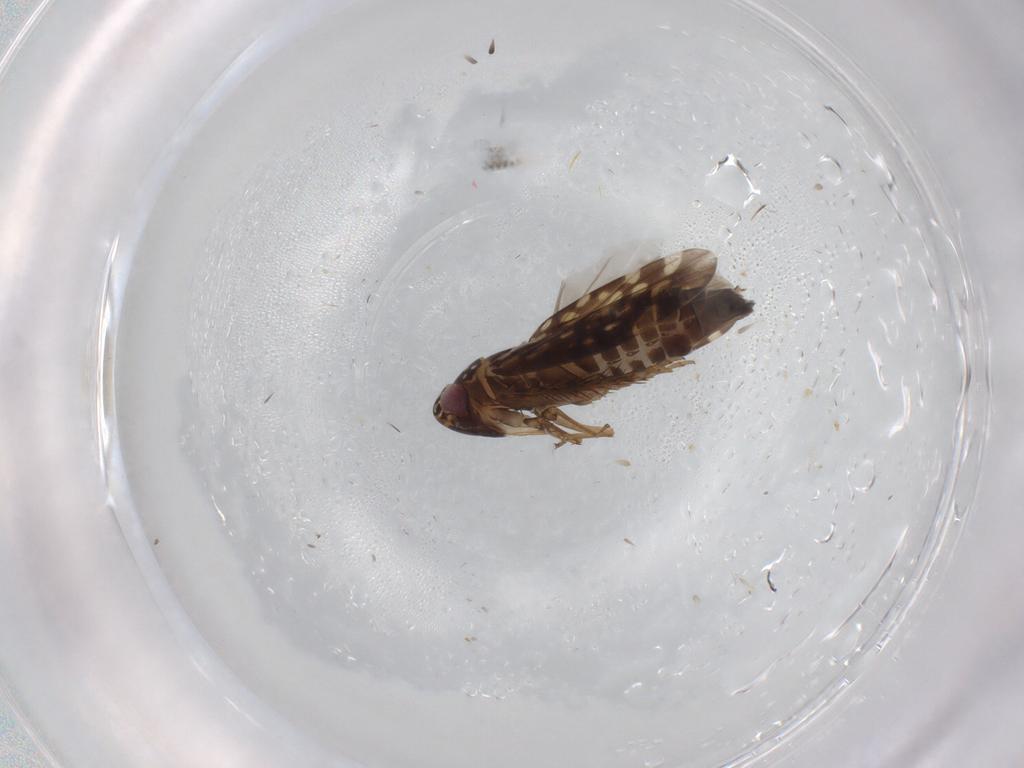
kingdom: Animalia
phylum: Arthropoda
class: Insecta
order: Hemiptera
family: Cicadellidae
